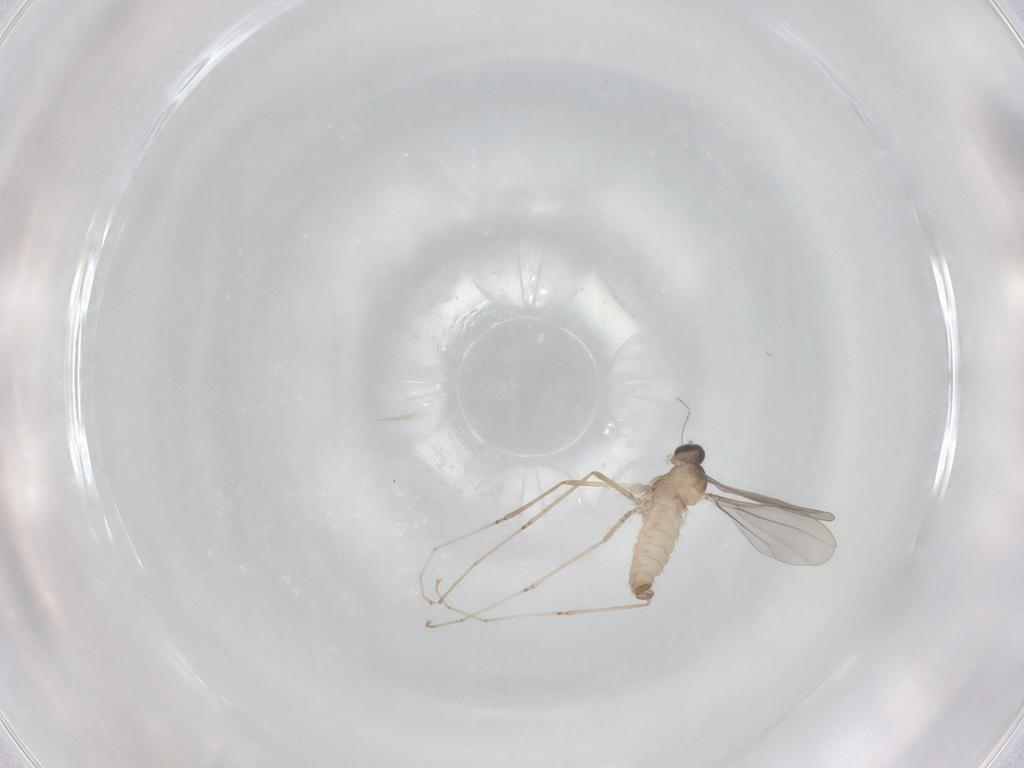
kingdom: Animalia
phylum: Arthropoda
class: Insecta
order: Diptera
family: Cecidomyiidae
